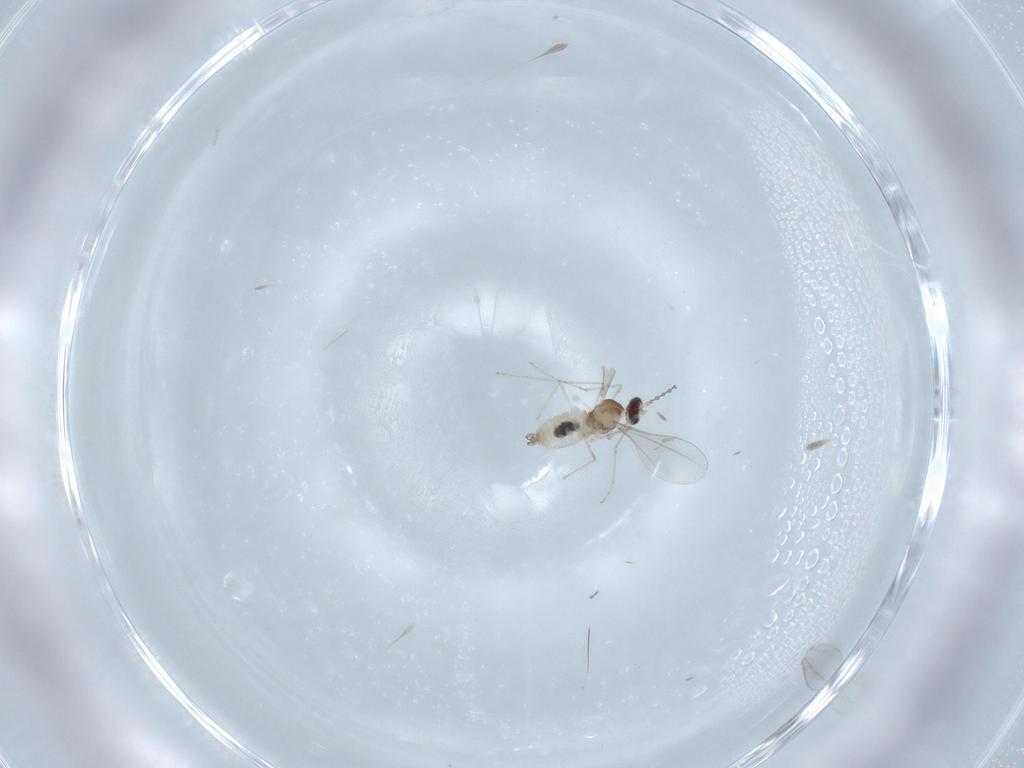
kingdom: Animalia
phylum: Arthropoda
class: Insecta
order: Diptera
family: Cecidomyiidae
